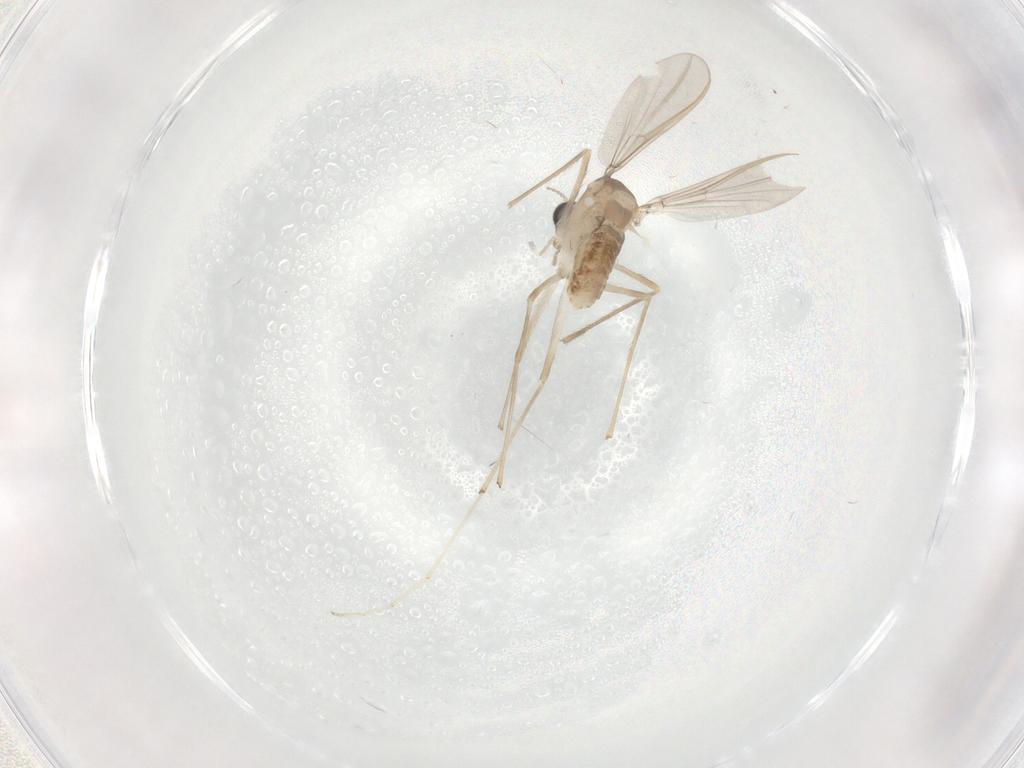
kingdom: Animalia
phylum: Arthropoda
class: Insecta
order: Diptera
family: Chironomidae
